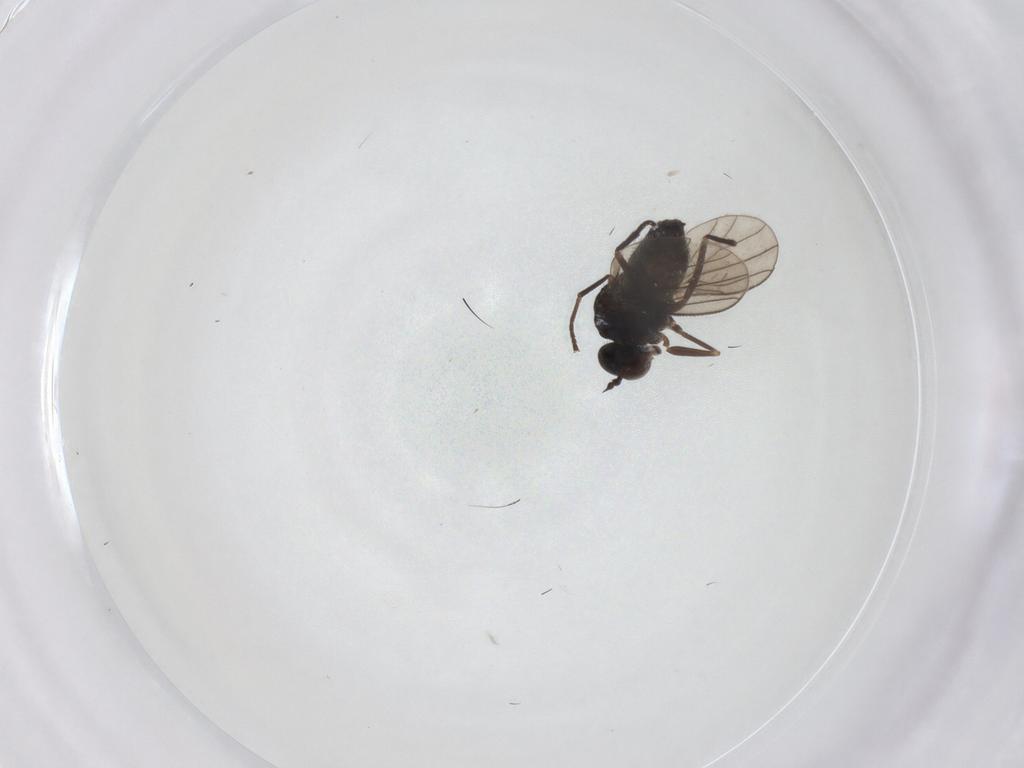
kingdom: Animalia
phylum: Arthropoda
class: Insecta
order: Diptera
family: Dolichopodidae
